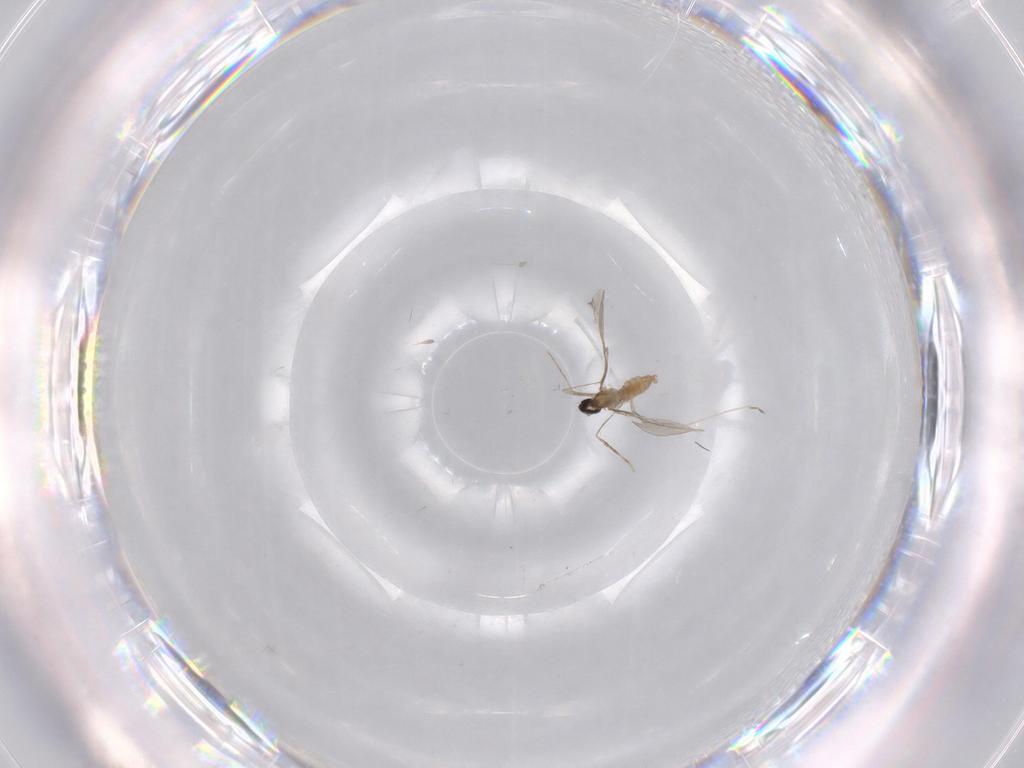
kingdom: Animalia
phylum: Arthropoda
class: Insecta
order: Diptera
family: Cecidomyiidae
